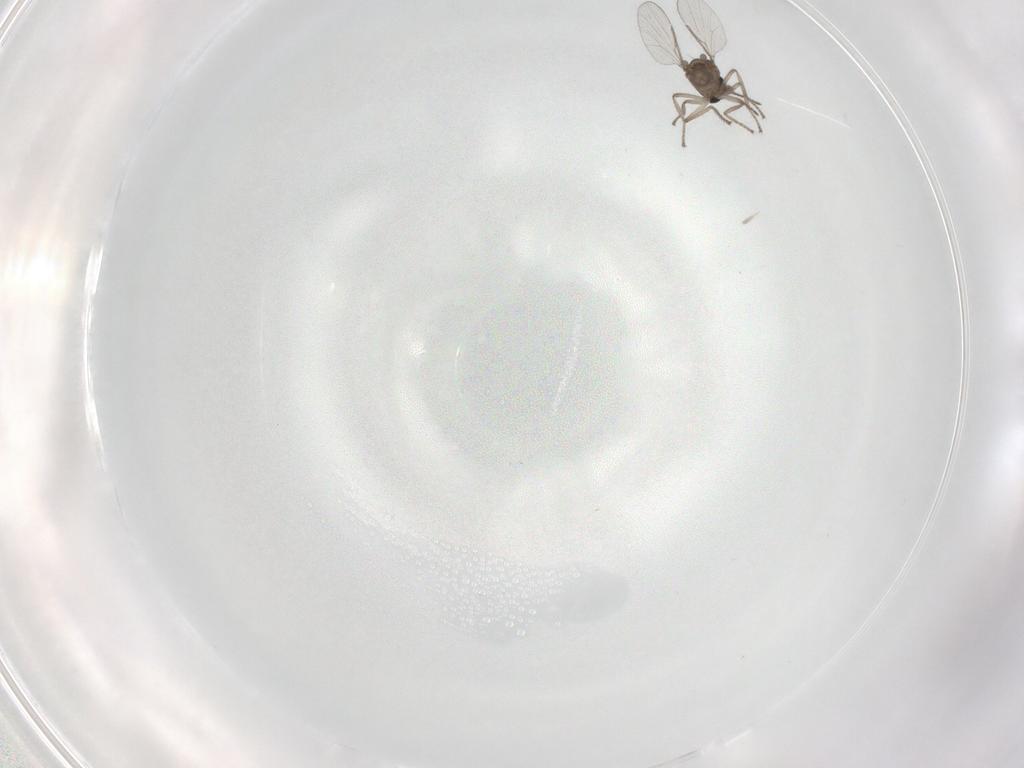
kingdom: Animalia
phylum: Arthropoda
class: Insecta
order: Diptera
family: Ceratopogonidae
